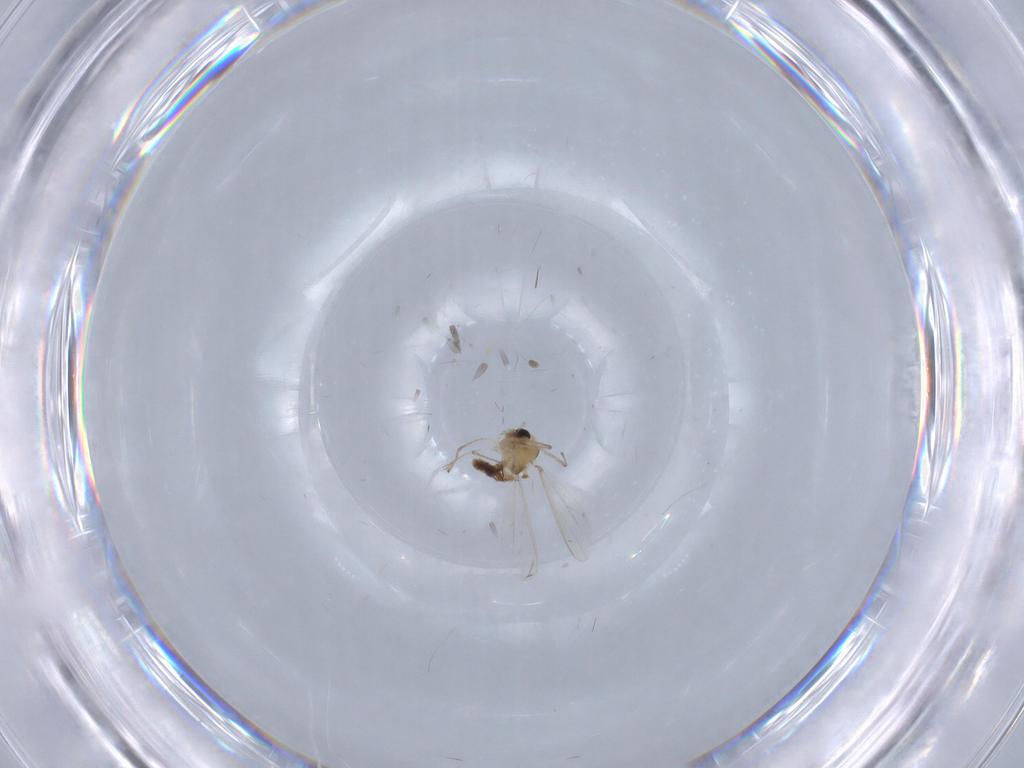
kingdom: Animalia
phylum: Arthropoda
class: Insecta
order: Diptera
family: Chironomidae
